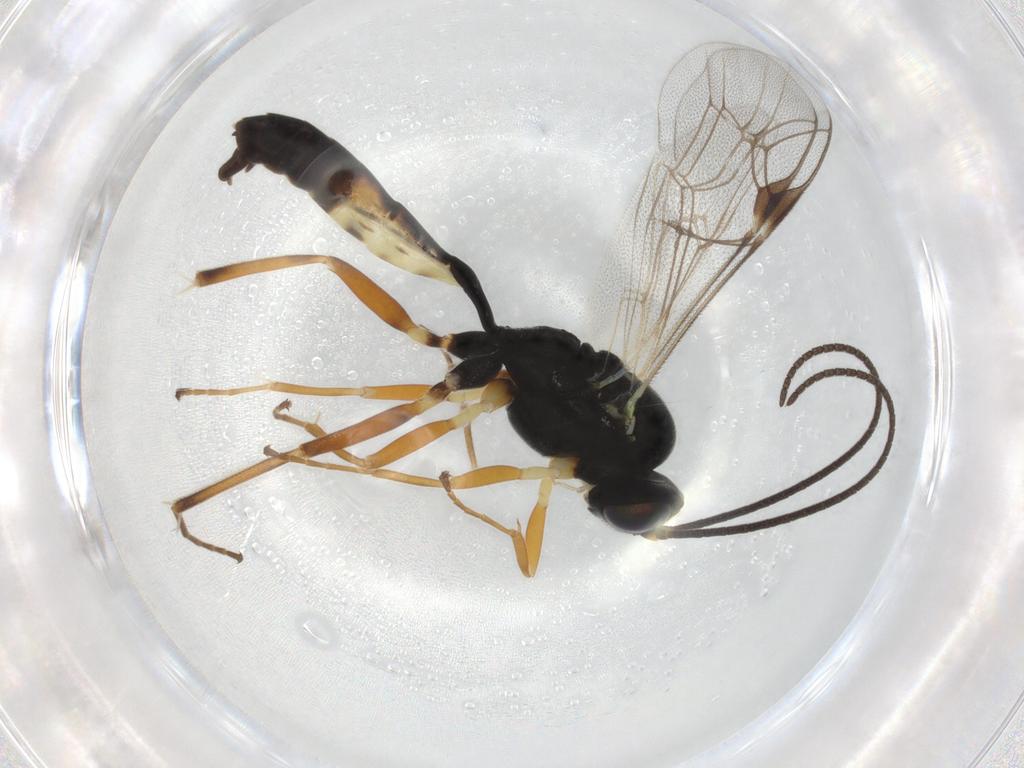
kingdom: Animalia
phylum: Arthropoda
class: Insecta
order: Hymenoptera
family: Ichneumonidae
